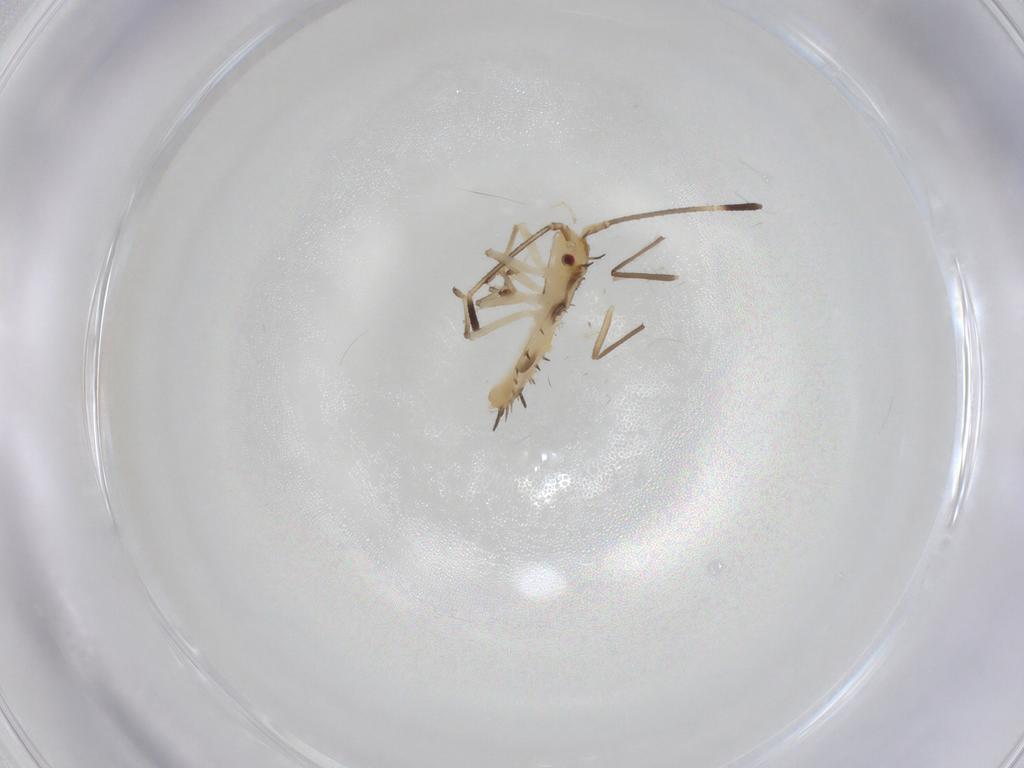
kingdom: Animalia
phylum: Arthropoda
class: Insecta
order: Hemiptera
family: Tingidae
